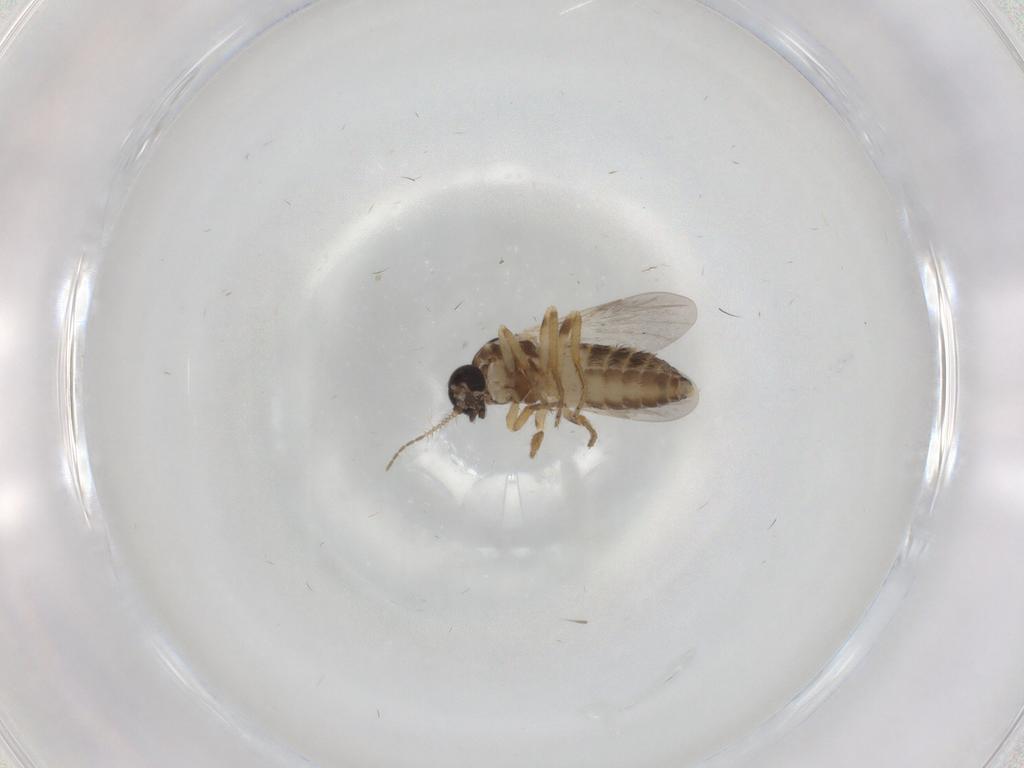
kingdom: Animalia
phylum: Arthropoda
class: Insecta
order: Diptera
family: Ceratopogonidae
